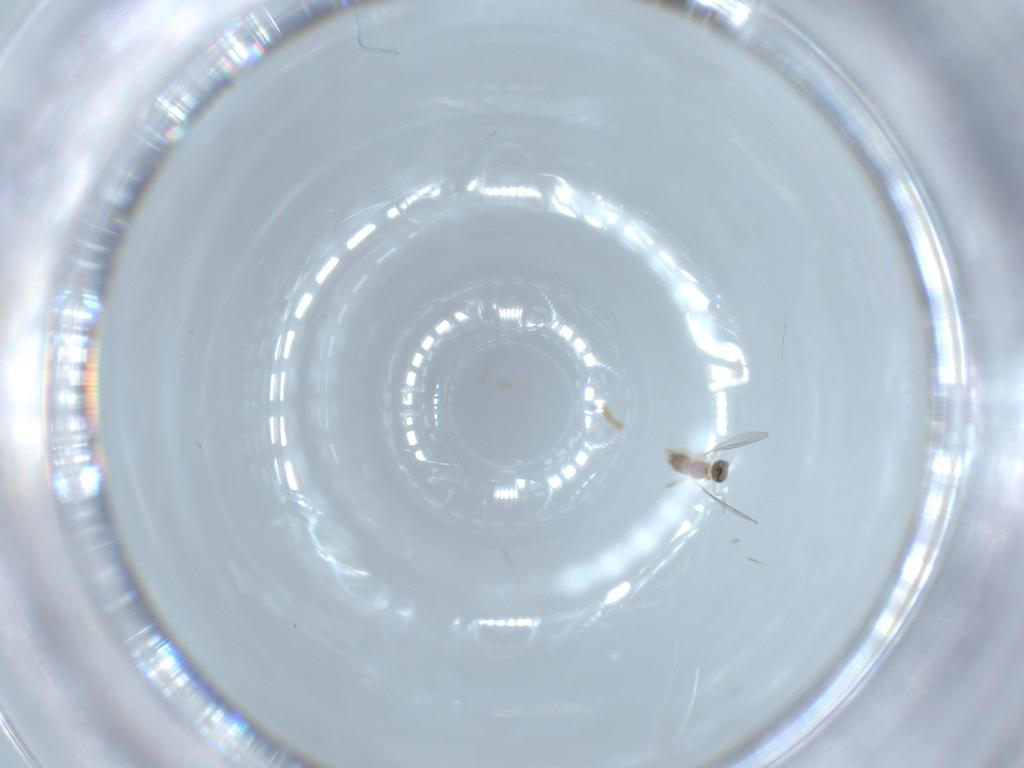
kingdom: Animalia
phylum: Arthropoda
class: Insecta
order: Diptera
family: Cecidomyiidae
